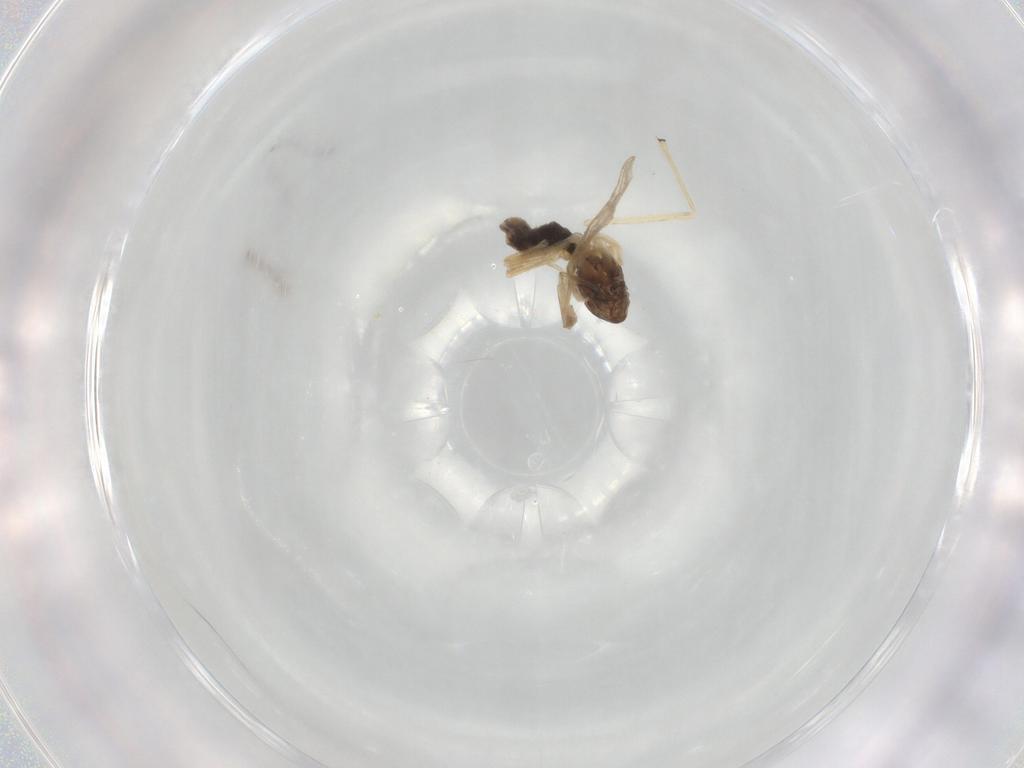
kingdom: Animalia
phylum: Arthropoda
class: Insecta
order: Diptera
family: Chironomidae
